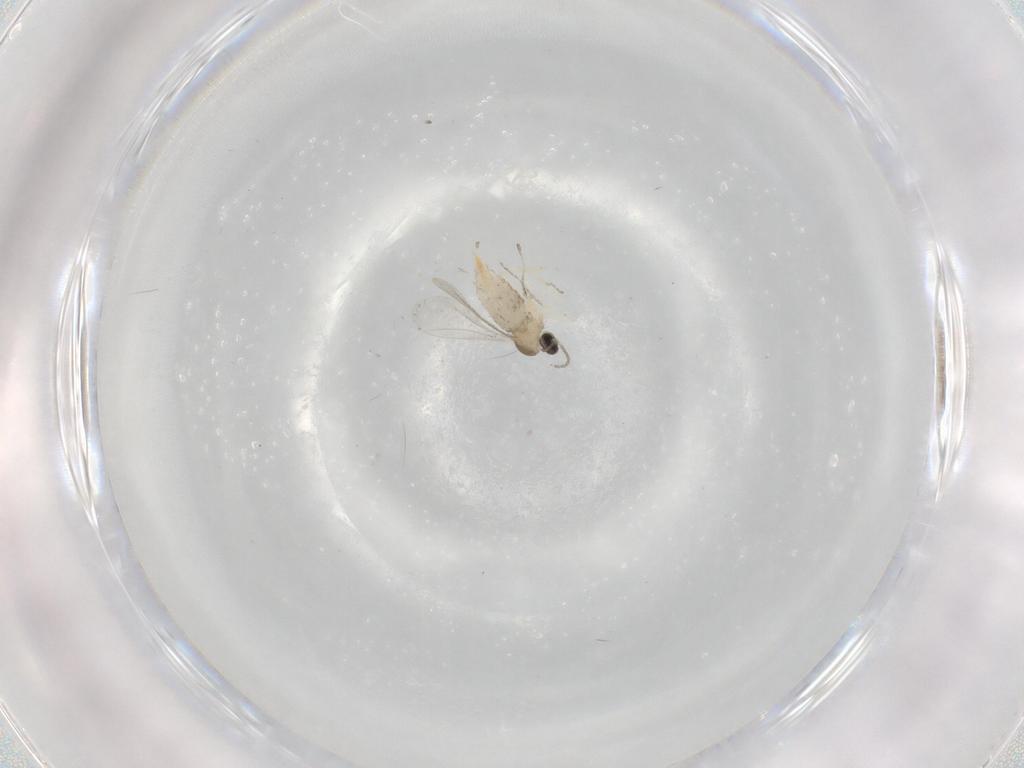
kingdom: Animalia
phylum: Arthropoda
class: Insecta
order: Diptera
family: Cecidomyiidae
